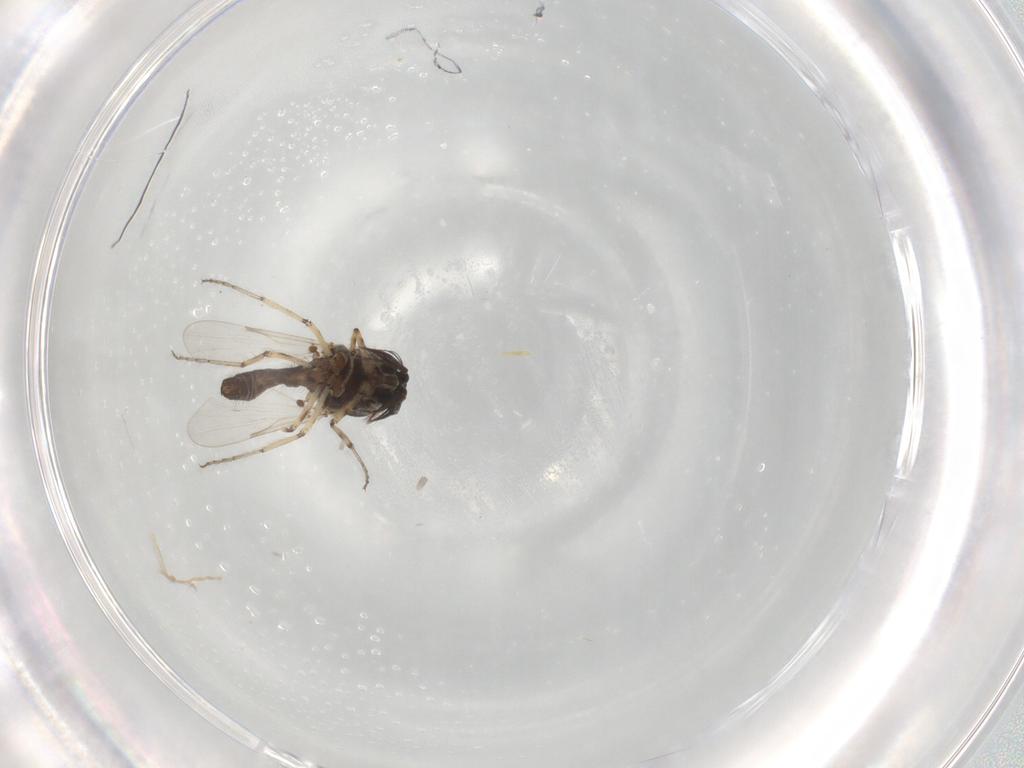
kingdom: Animalia
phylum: Arthropoda
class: Insecta
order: Diptera
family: Ceratopogonidae
